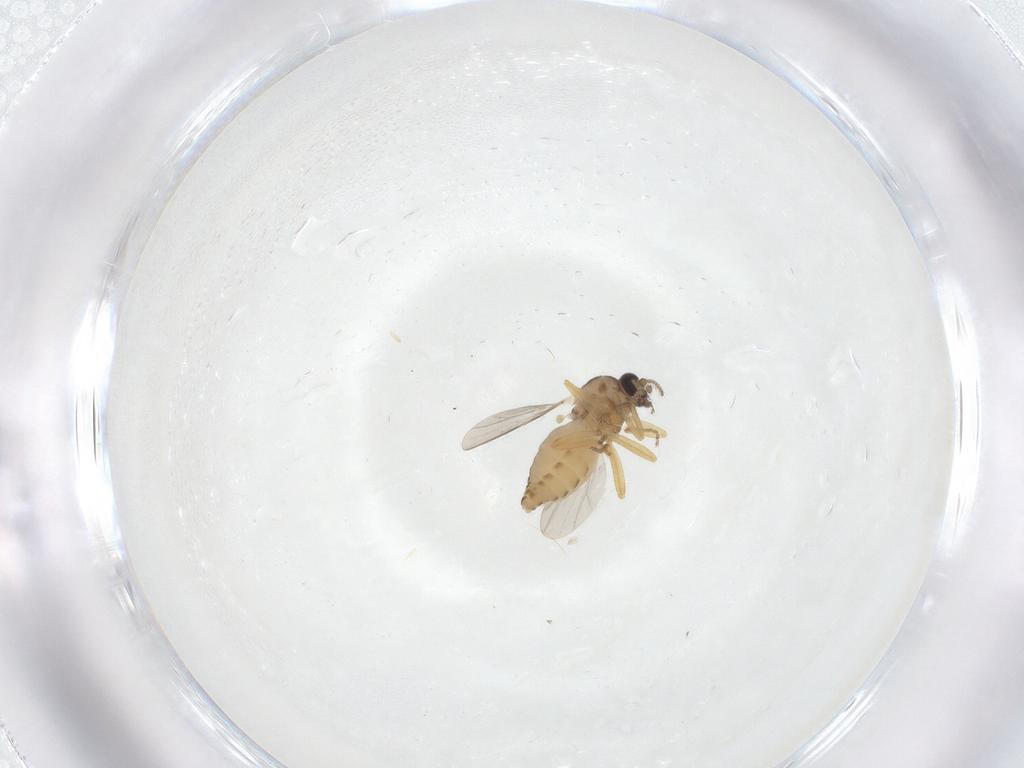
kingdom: Animalia
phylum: Arthropoda
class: Insecta
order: Diptera
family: Ceratopogonidae
